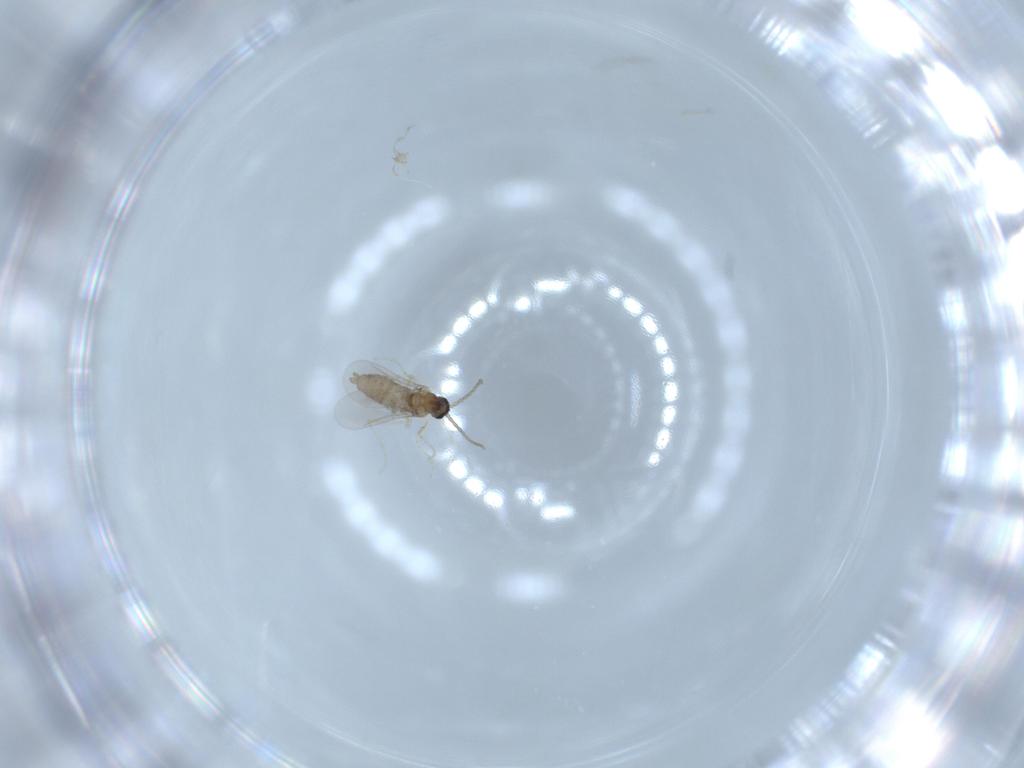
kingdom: Animalia
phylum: Arthropoda
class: Insecta
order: Diptera
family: Cecidomyiidae
